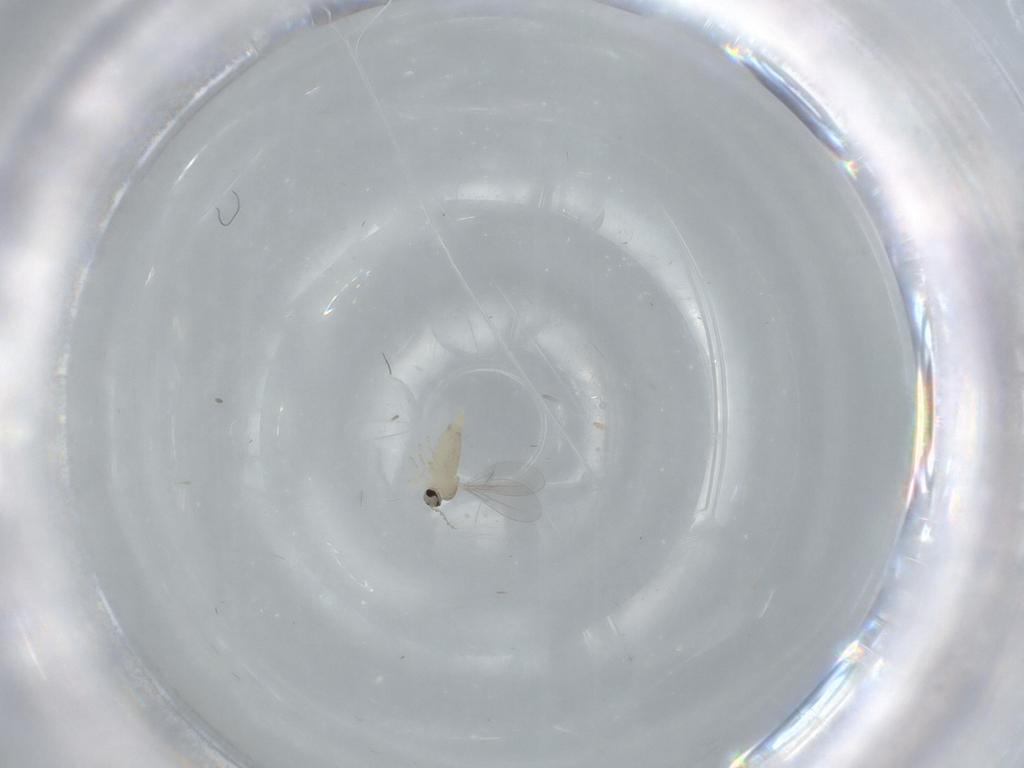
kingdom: Animalia
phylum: Arthropoda
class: Insecta
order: Diptera
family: Cecidomyiidae
